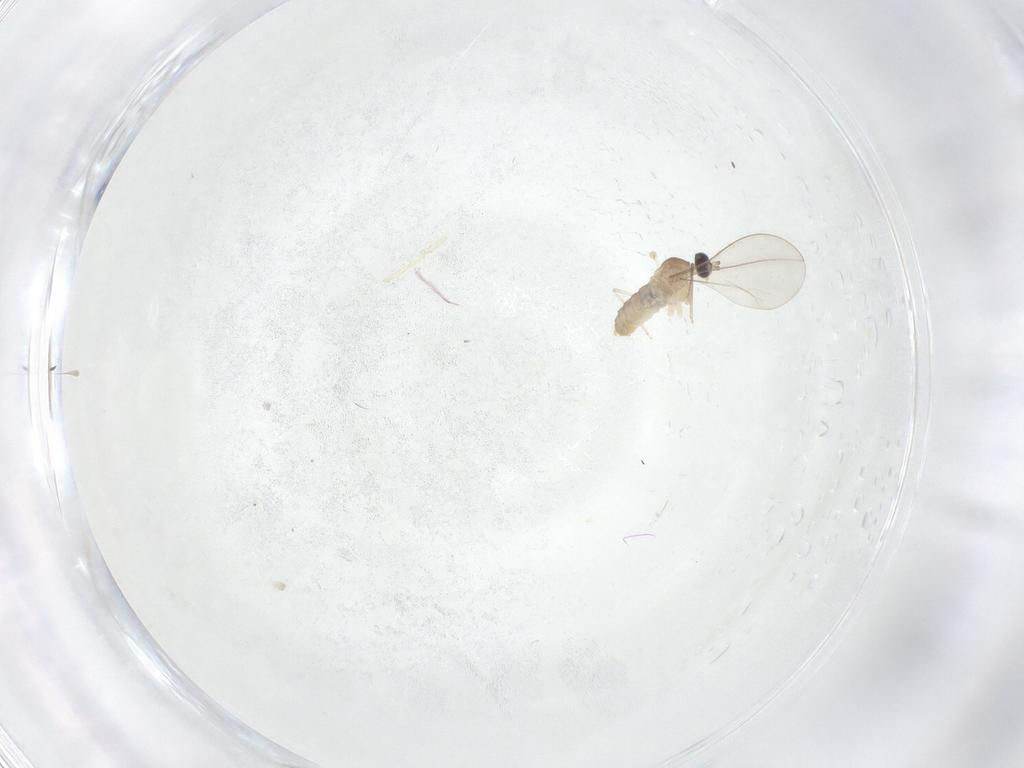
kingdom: Animalia
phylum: Arthropoda
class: Insecta
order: Diptera
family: Cecidomyiidae
